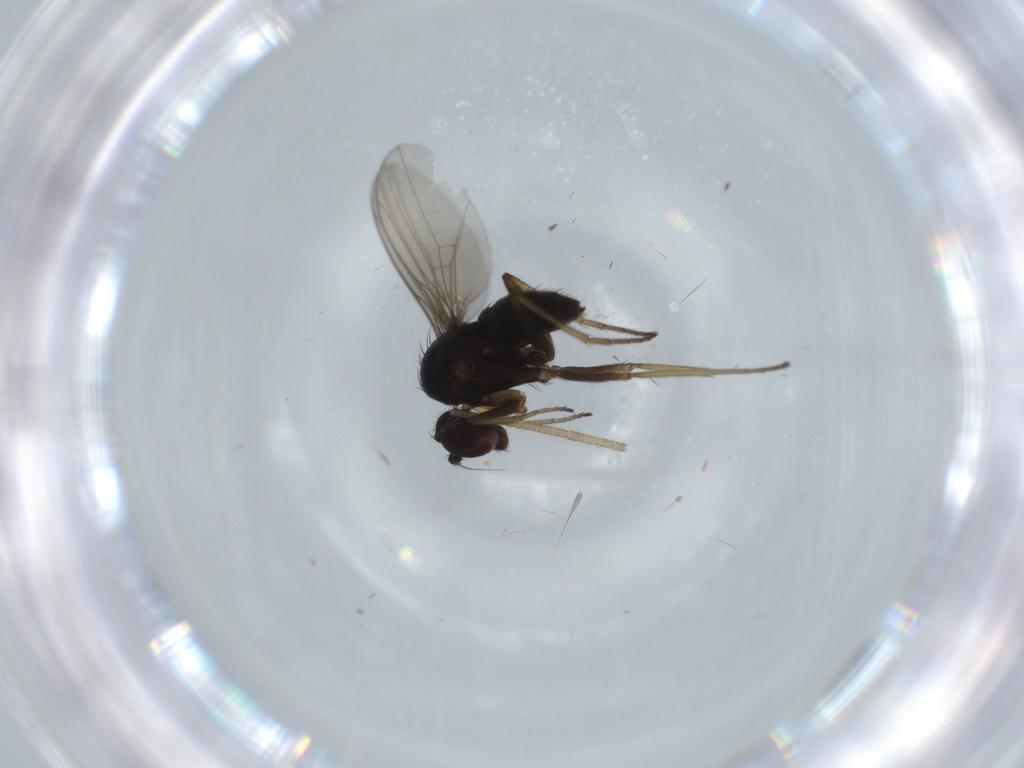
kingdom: Animalia
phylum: Arthropoda
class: Insecta
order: Diptera
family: Dolichopodidae
